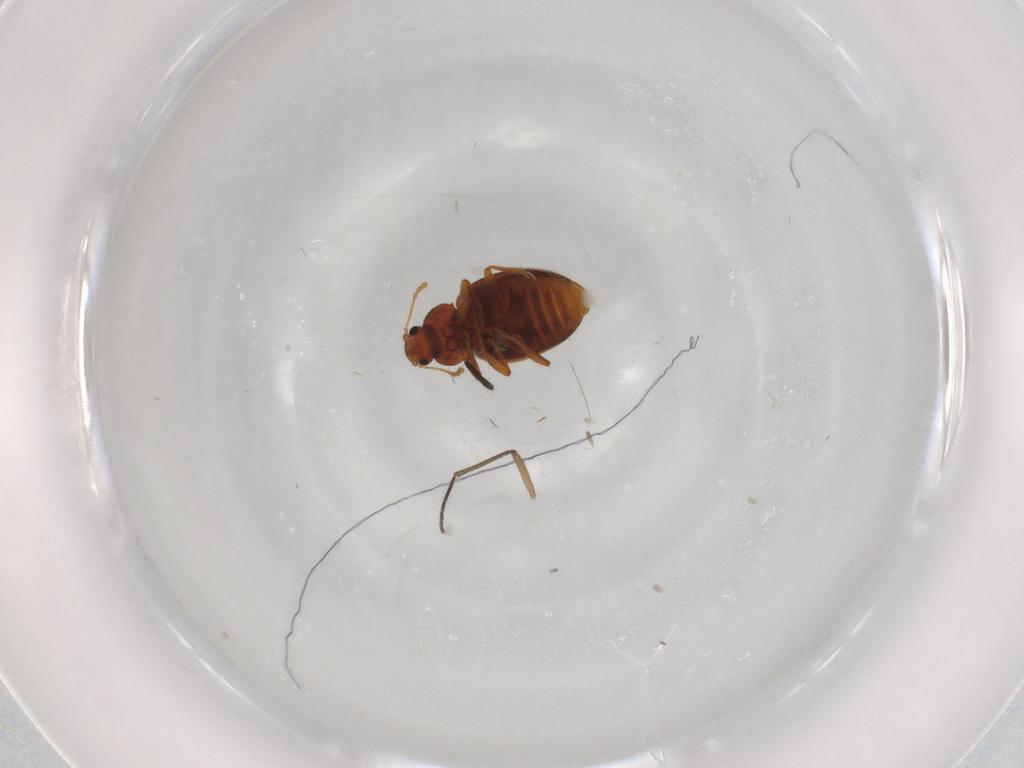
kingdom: Animalia
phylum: Arthropoda
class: Insecta
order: Coleoptera
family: Latridiidae
